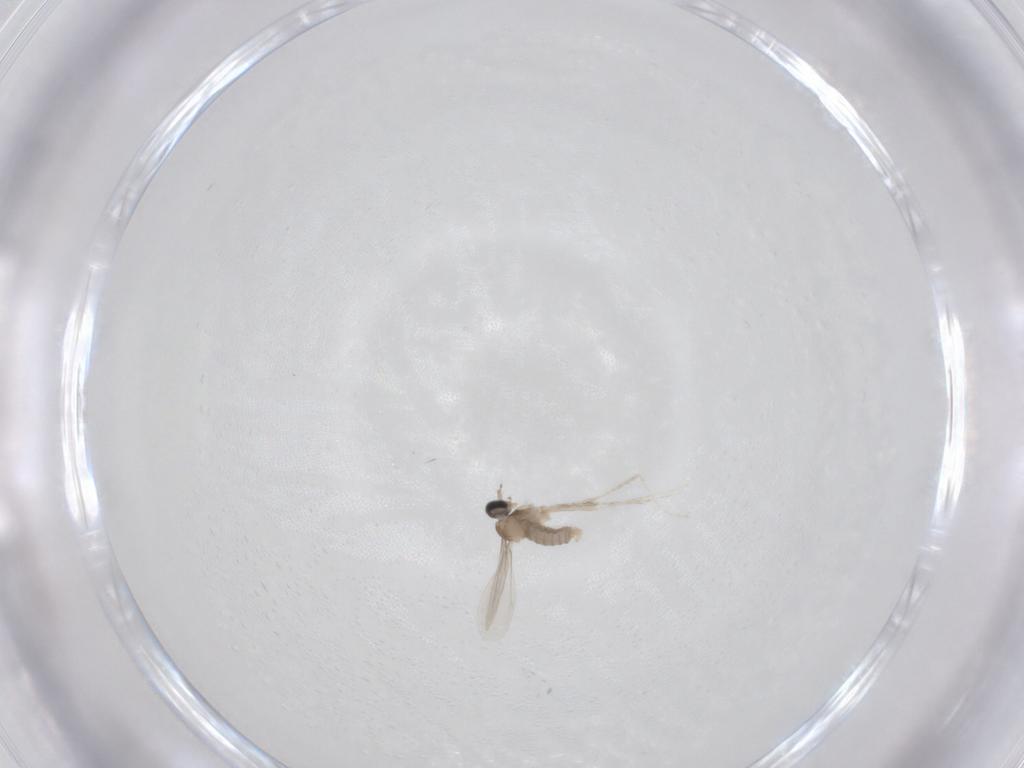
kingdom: Animalia
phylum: Arthropoda
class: Insecta
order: Diptera
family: Cecidomyiidae
